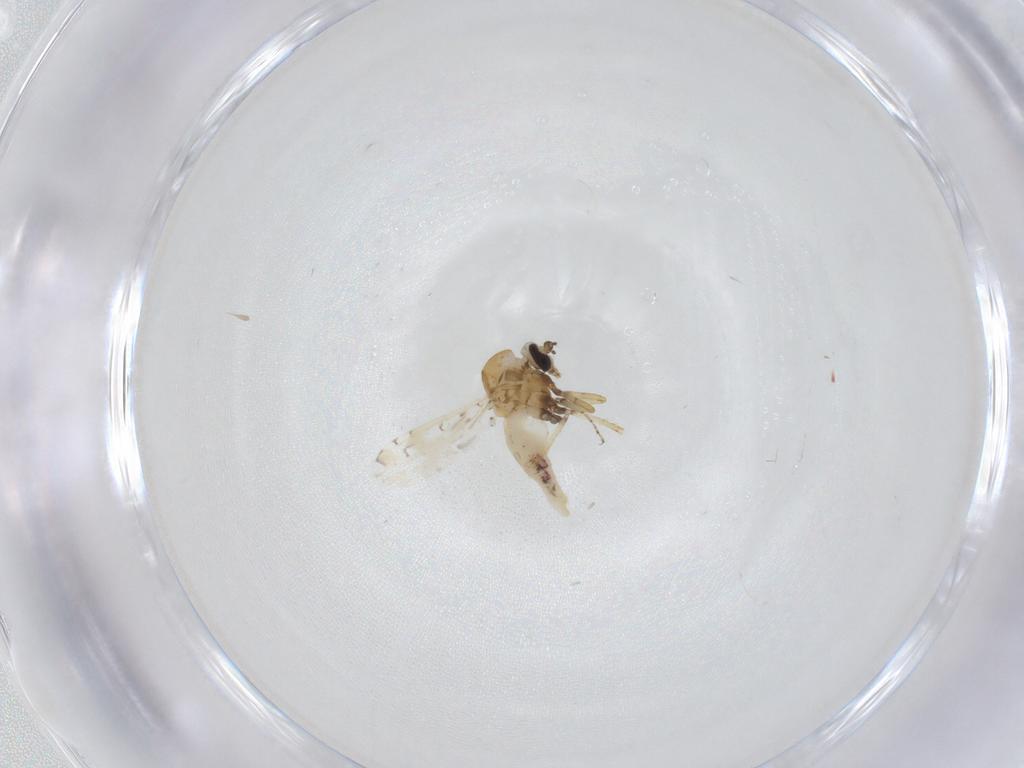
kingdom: Animalia
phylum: Arthropoda
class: Insecta
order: Diptera
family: Ceratopogonidae
